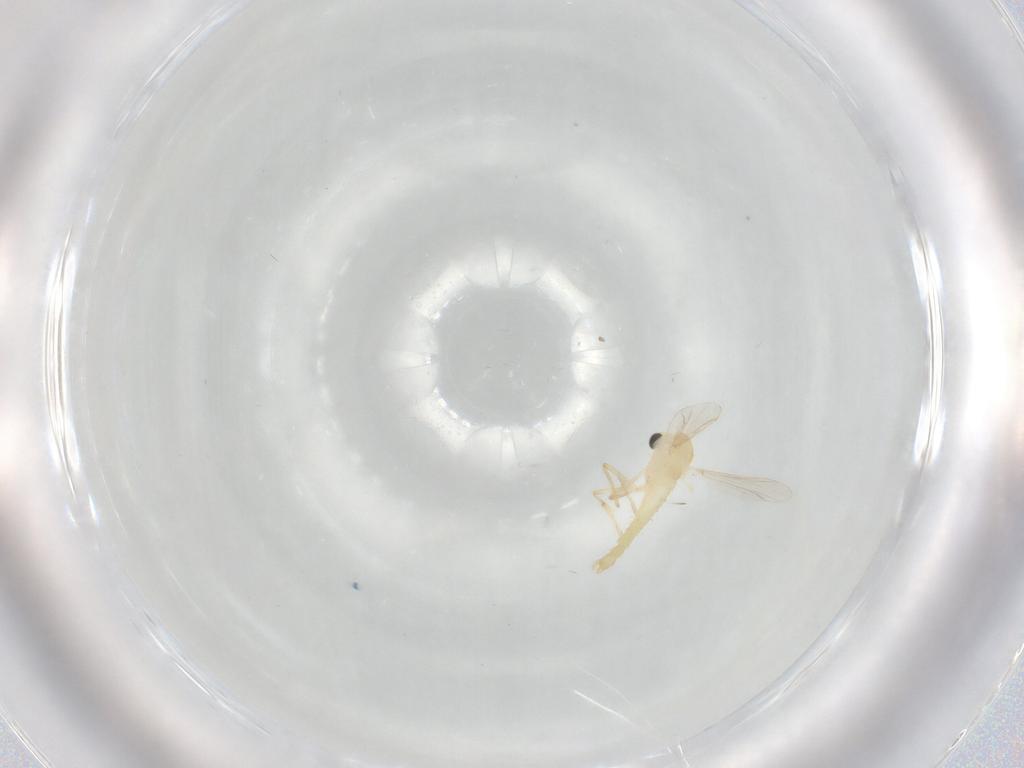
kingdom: Animalia
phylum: Arthropoda
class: Insecta
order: Diptera
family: Chironomidae
